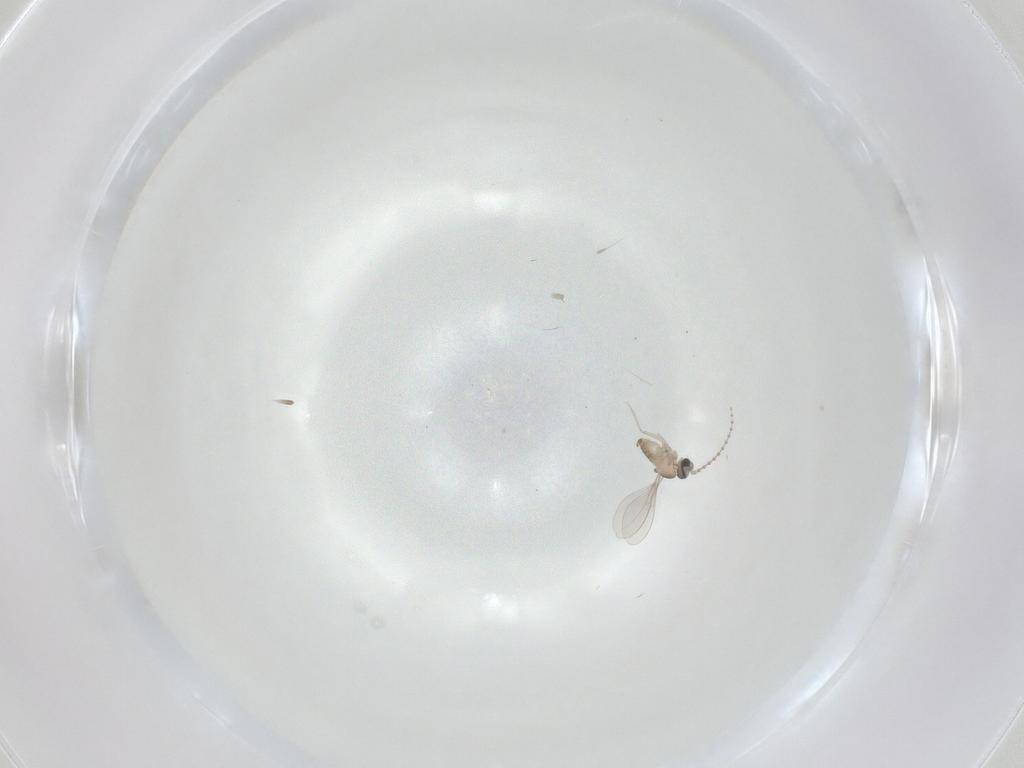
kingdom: Animalia
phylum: Arthropoda
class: Insecta
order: Diptera
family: Cecidomyiidae
